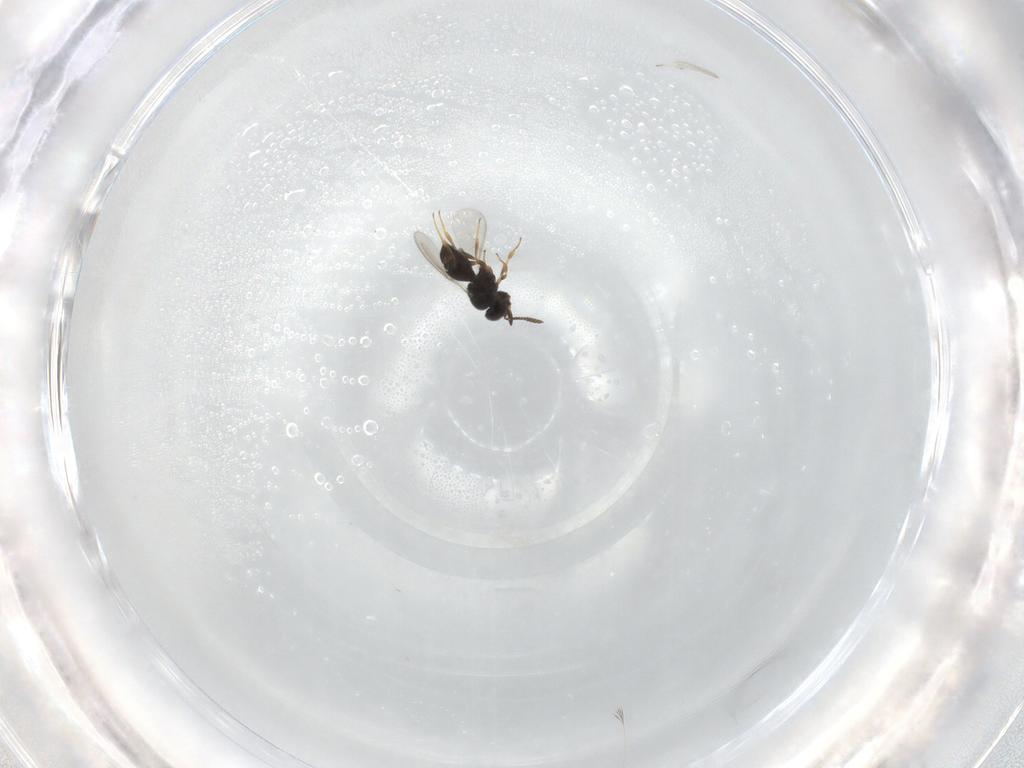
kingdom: Animalia
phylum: Arthropoda
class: Insecta
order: Hymenoptera
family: Scelionidae
